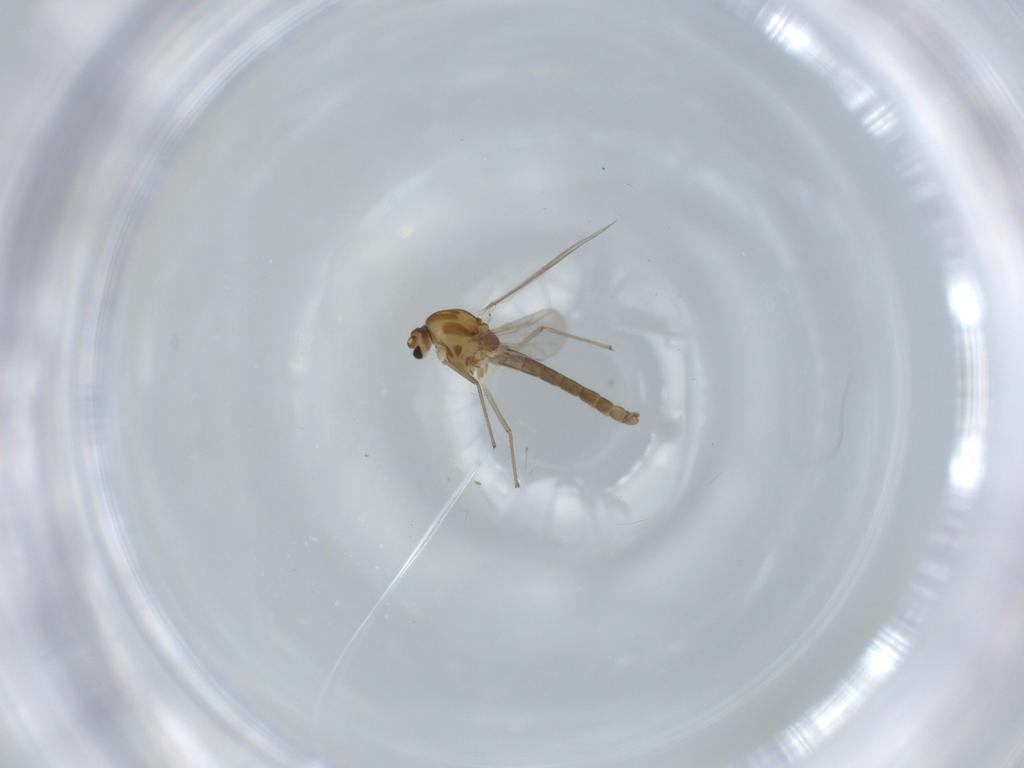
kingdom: Animalia
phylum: Arthropoda
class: Insecta
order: Diptera
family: Chironomidae
